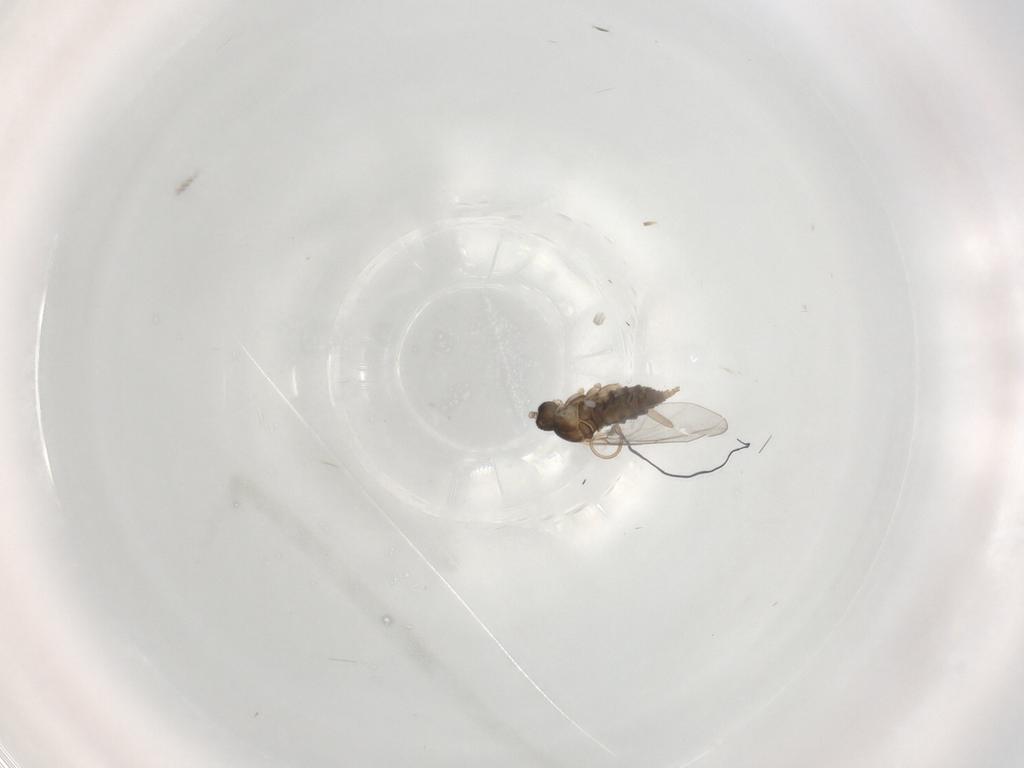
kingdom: Animalia
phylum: Arthropoda
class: Insecta
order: Diptera
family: Cecidomyiidae
